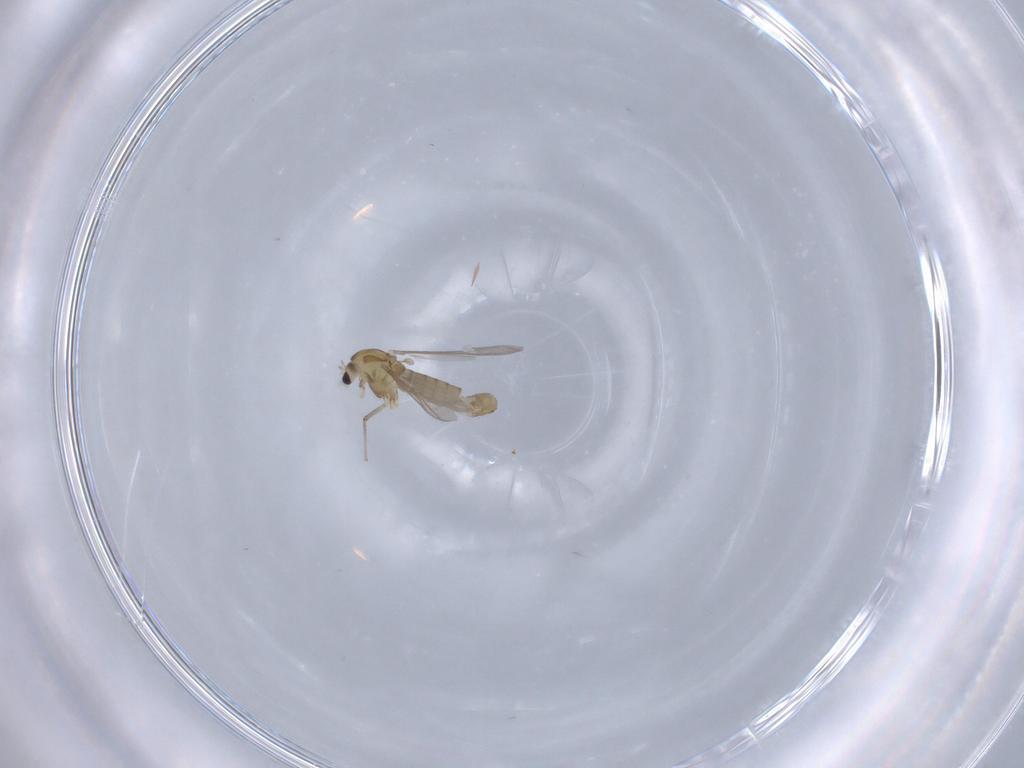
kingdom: Animalia
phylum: Arthropoda
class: Insecta
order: Diptera
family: Chironomidae
